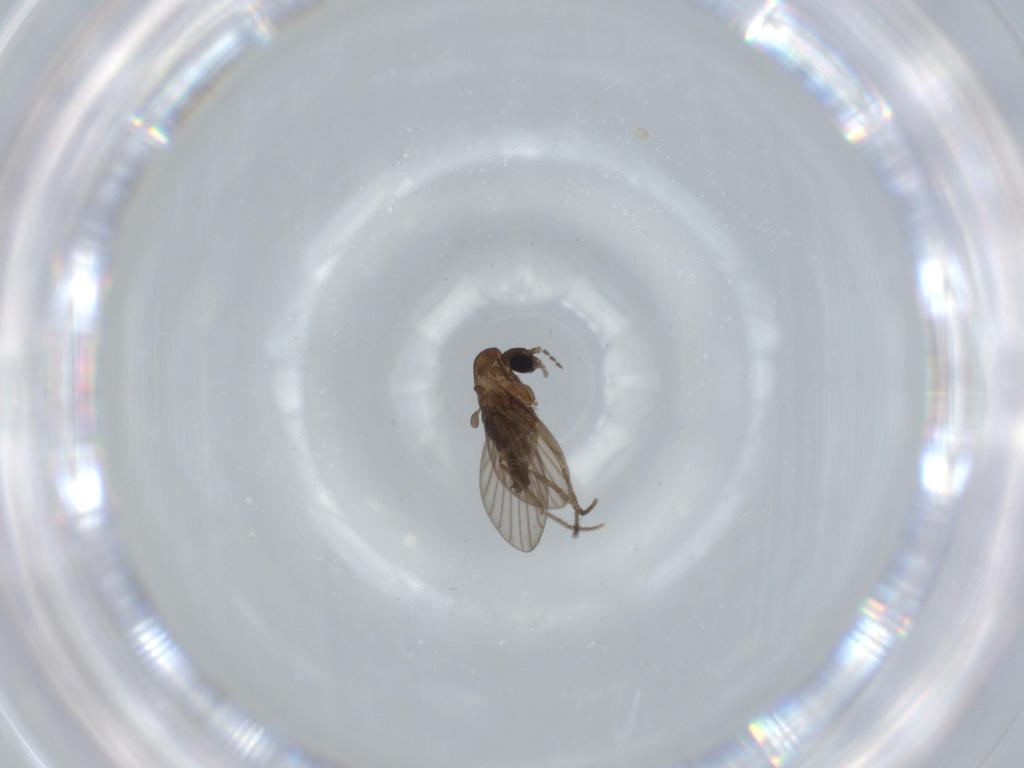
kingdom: Animalia
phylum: Arthropoda
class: Insecta
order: Diptera
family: Psychodidae
